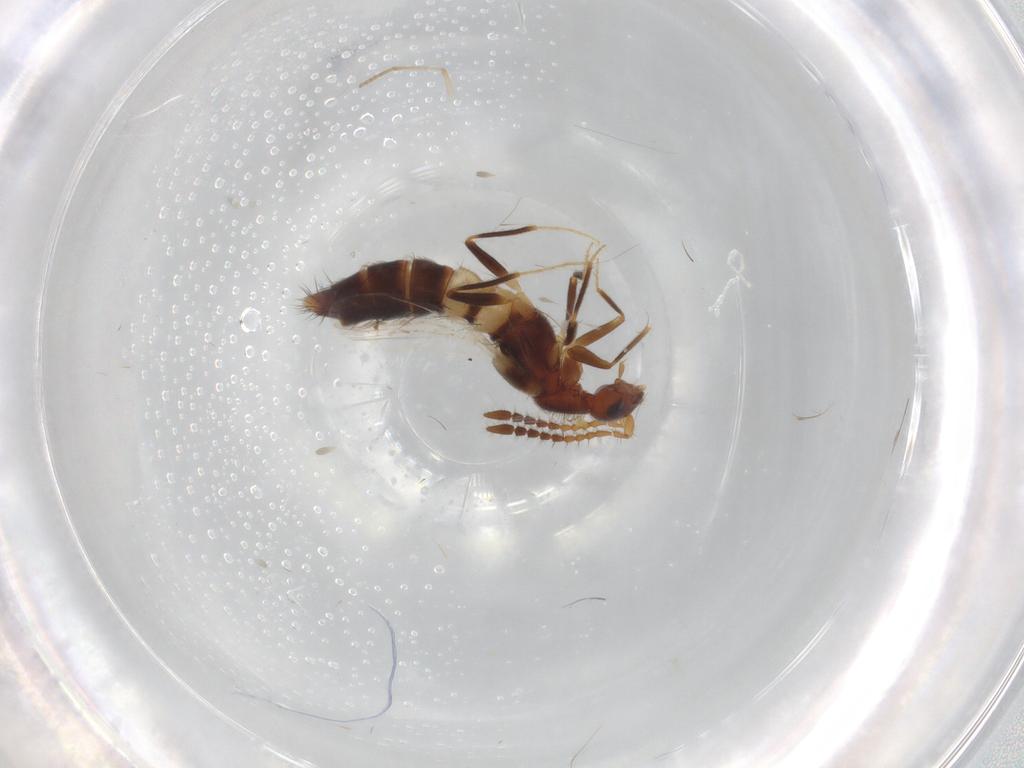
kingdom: Animalia
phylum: Arthropoda
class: Insecta
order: Coleoptera
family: Staphylinidae
